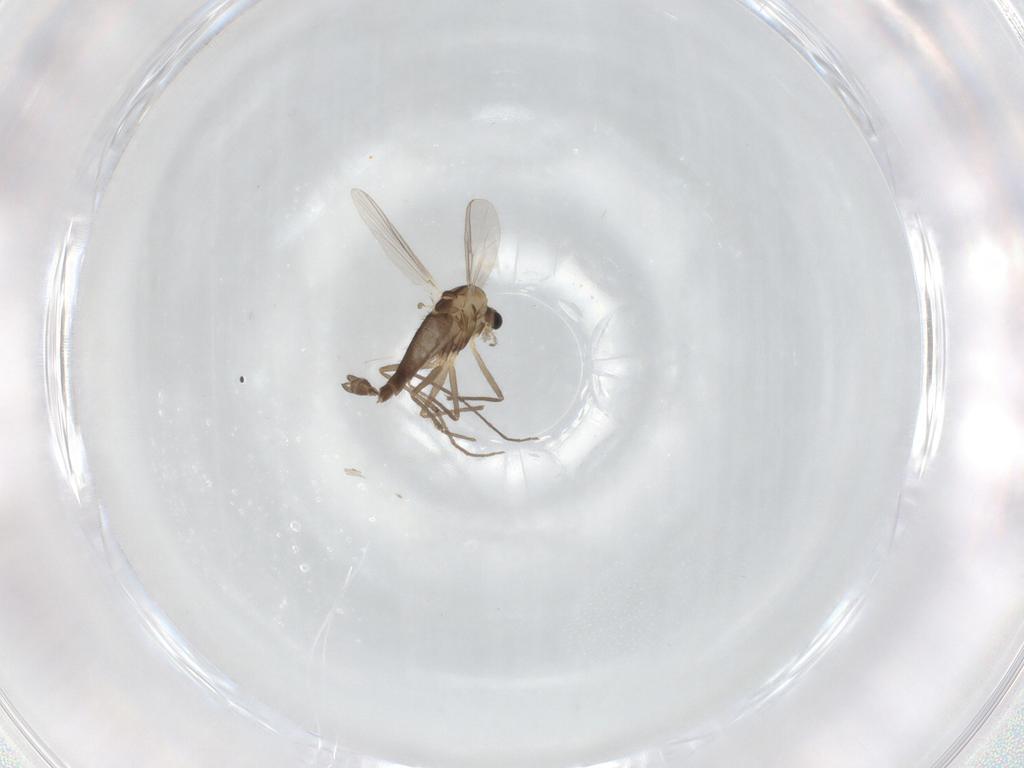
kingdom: Animalia
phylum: Arthropoda
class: Insecta
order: Diptera
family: Chironomidae
